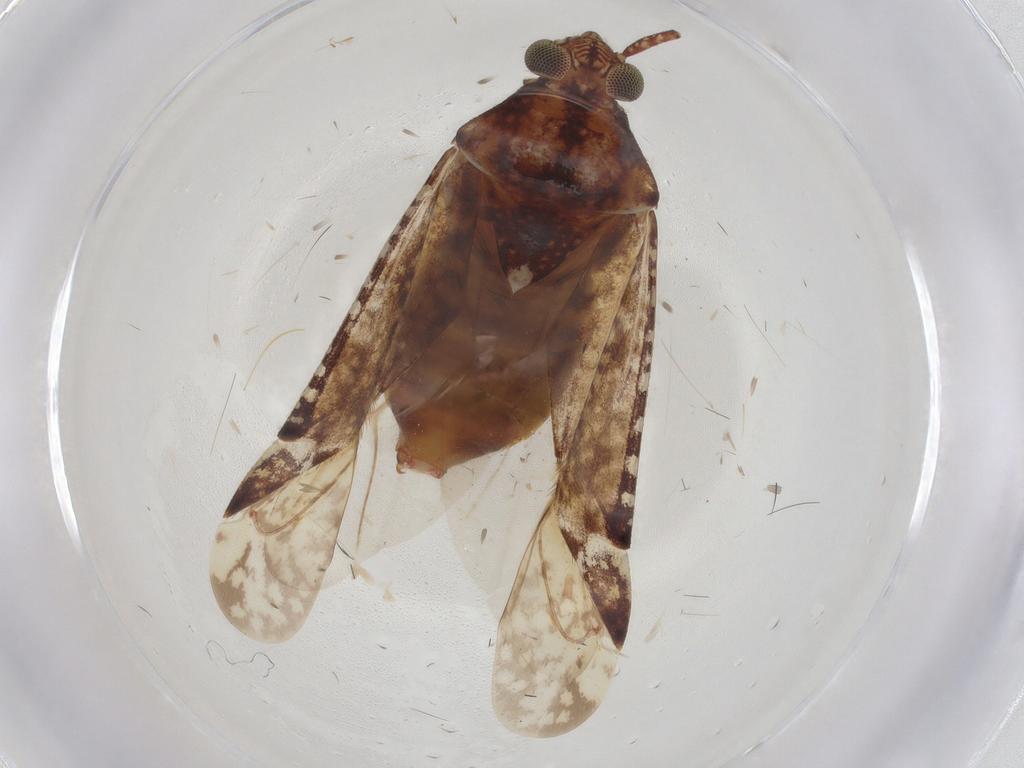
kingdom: Animalia
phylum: Arthropoda
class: Insecta
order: Hemiptera
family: Miridae
